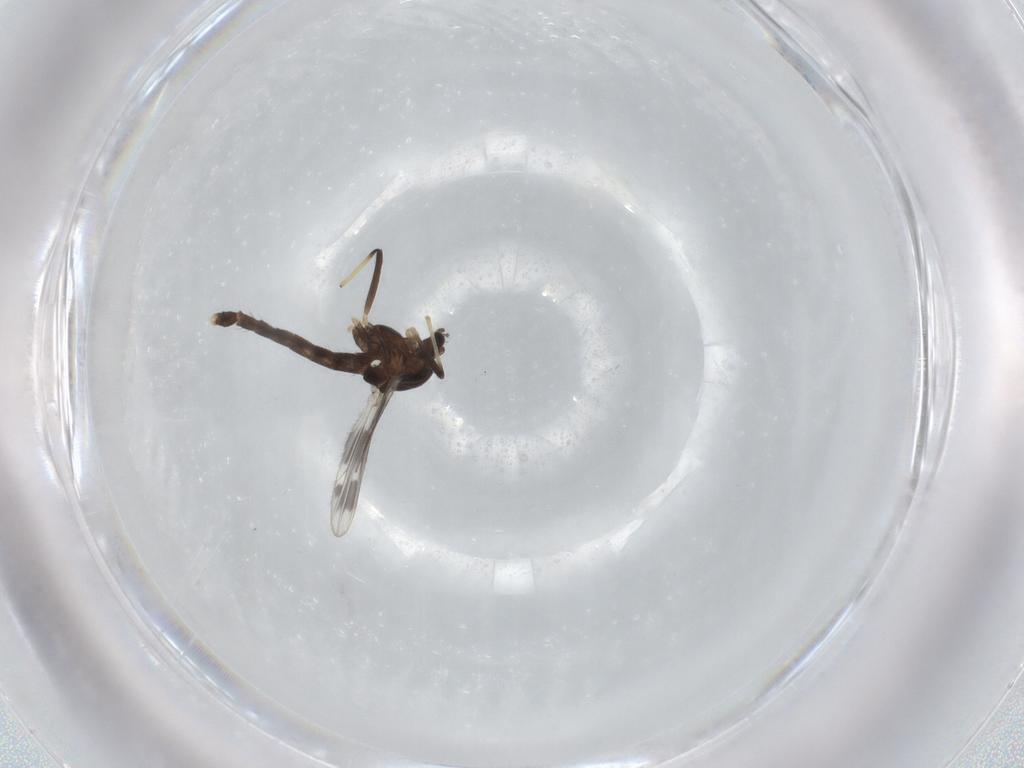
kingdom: Animalia
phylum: Arthropoda
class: Insecta
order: Diptera
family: Chironomidae
